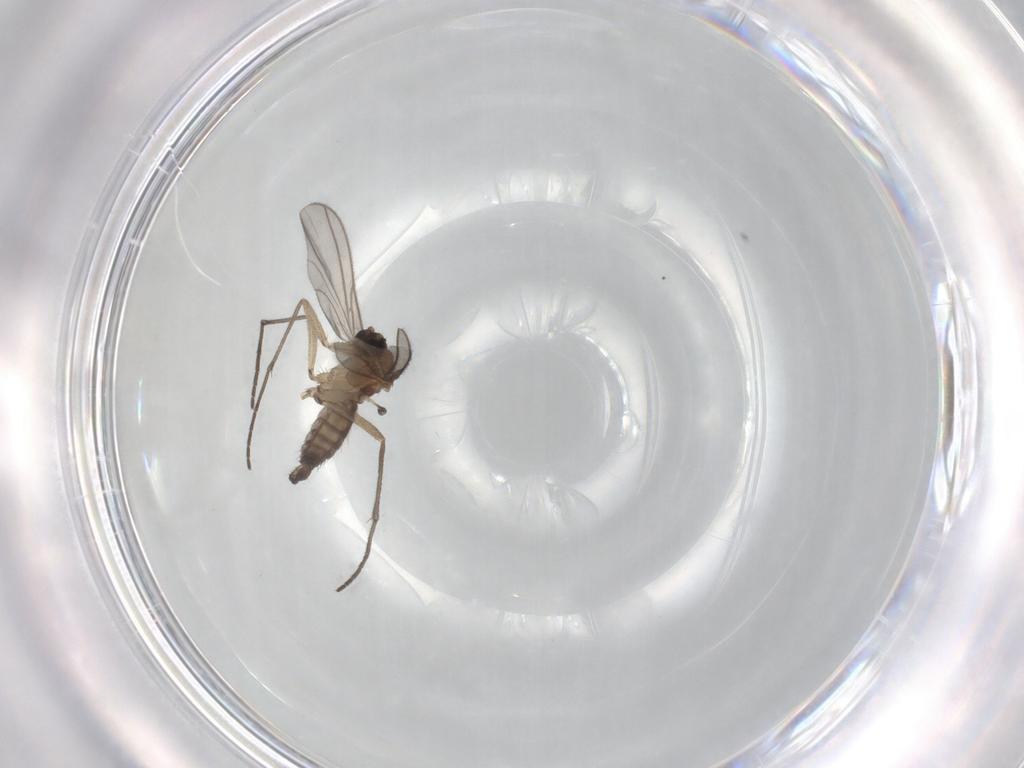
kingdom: Animalia
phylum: Arthropoda
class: Insecta
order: Diptera
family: Sciaridae
